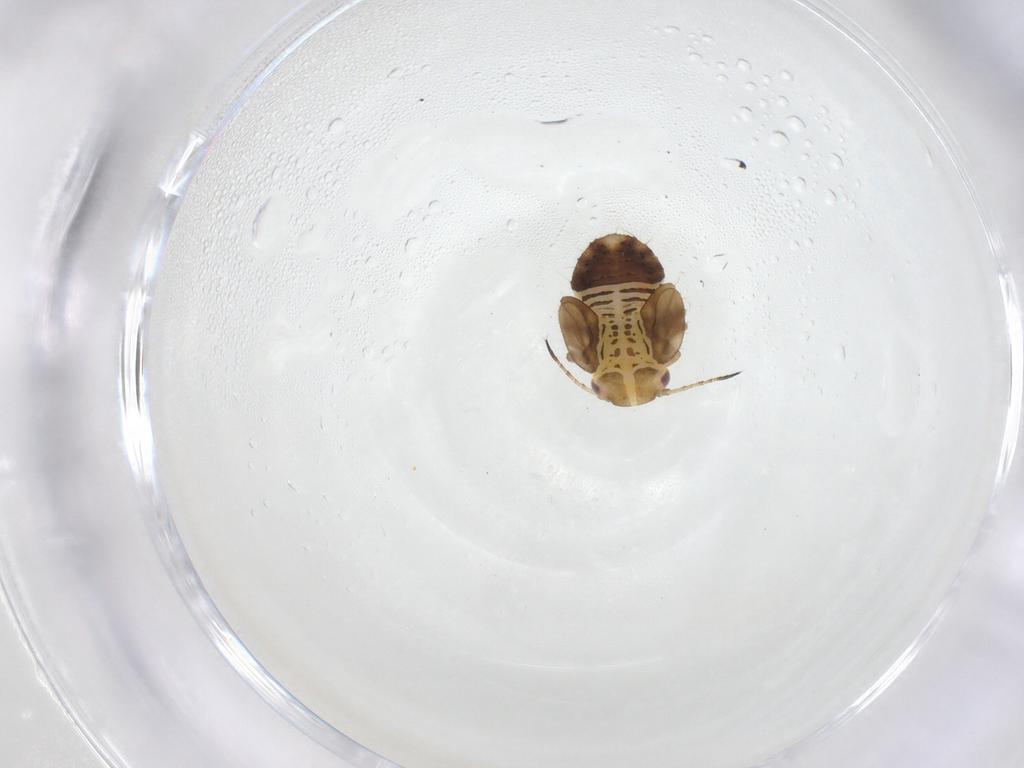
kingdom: Animalia
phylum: Arthropoda
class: Insecta
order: Hemiptera
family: Psyllidae
